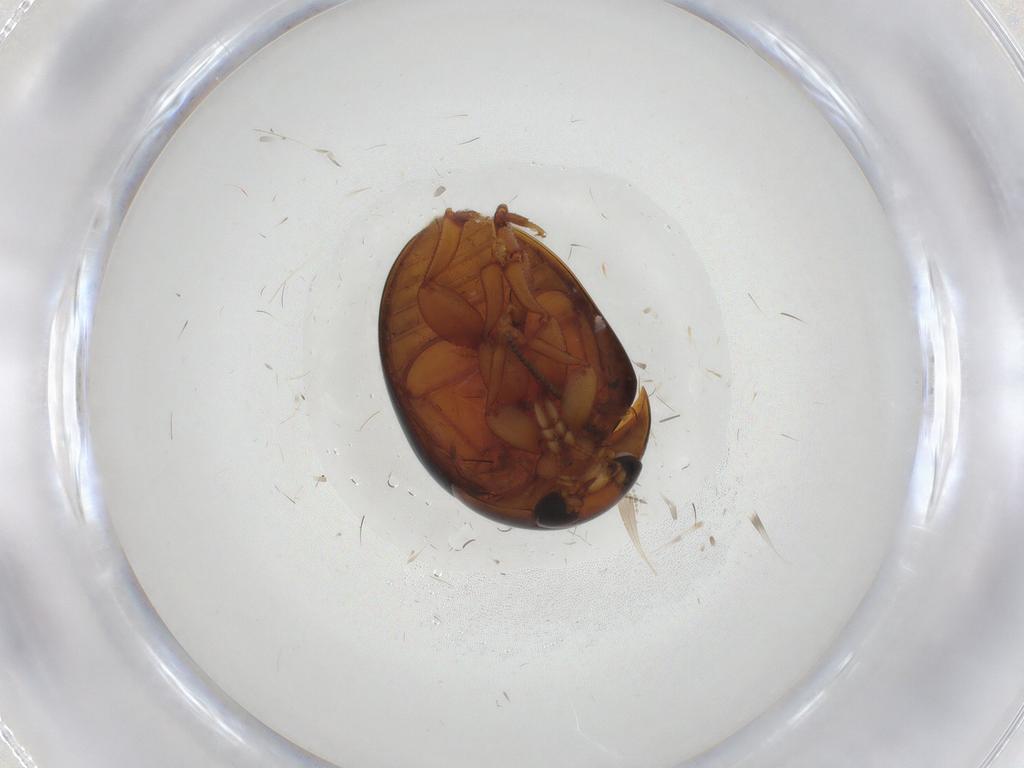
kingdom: Animalia
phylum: Arthropoda
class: Insecta
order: Coleoptera
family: Phalacridae
